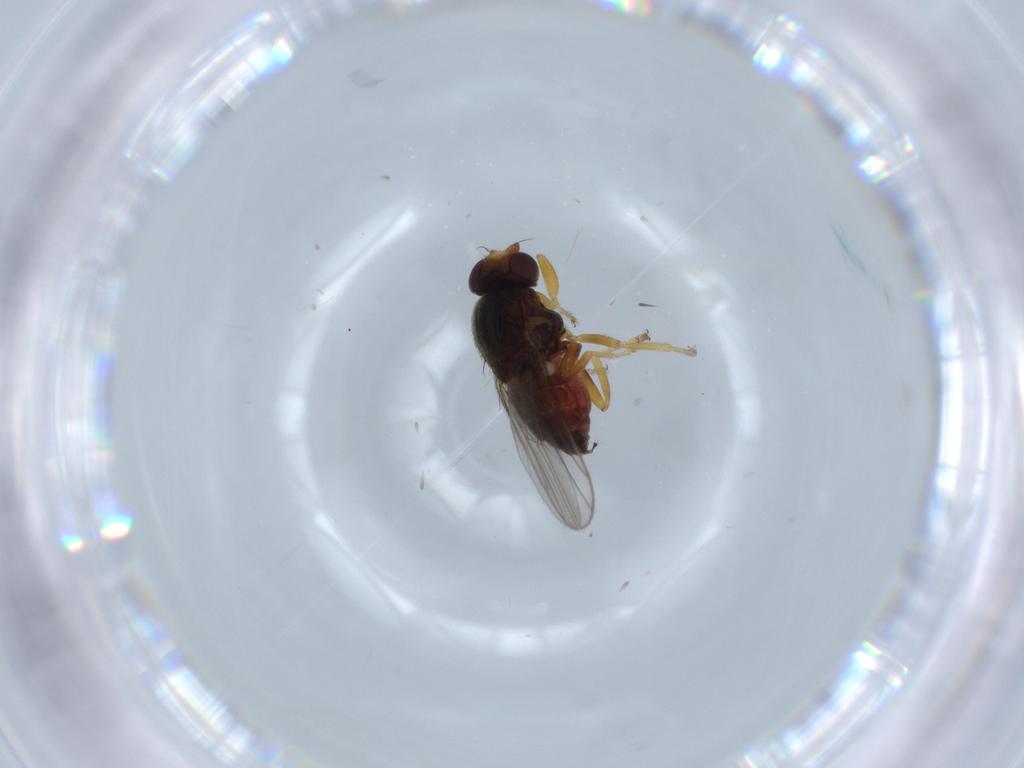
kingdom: Animalia
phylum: Arthropoda
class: Insecta
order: Diptera
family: Chloropidae
